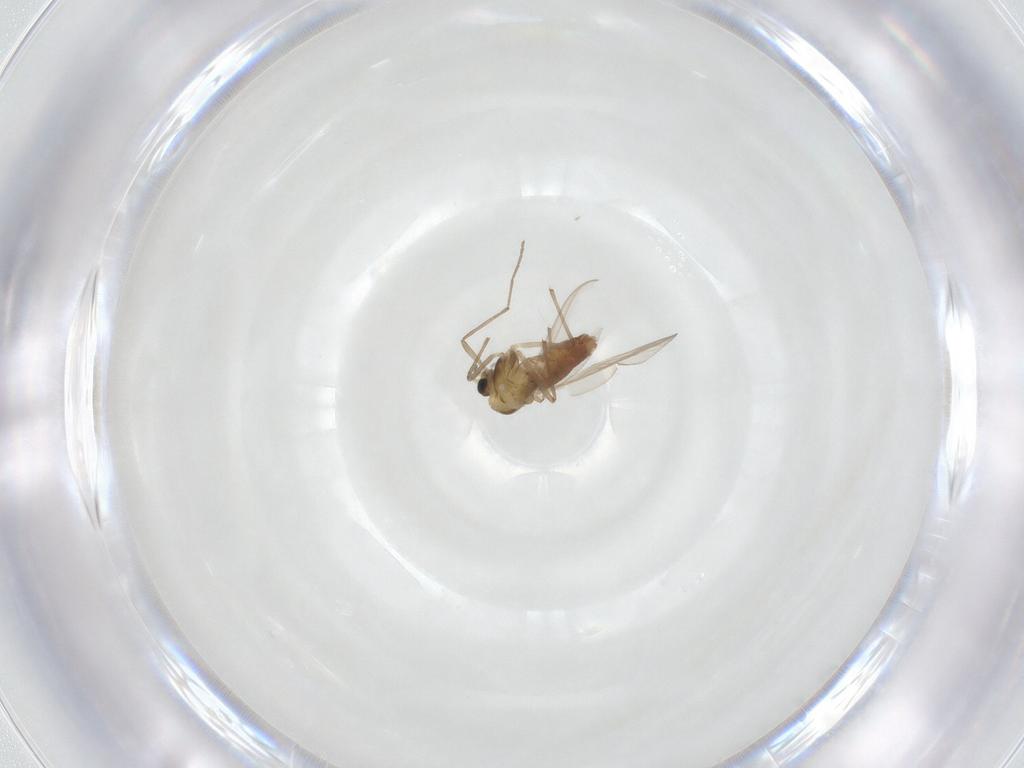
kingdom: Animalia
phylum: Arthropoda
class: Insecta
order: Diptera
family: Chironomidae
